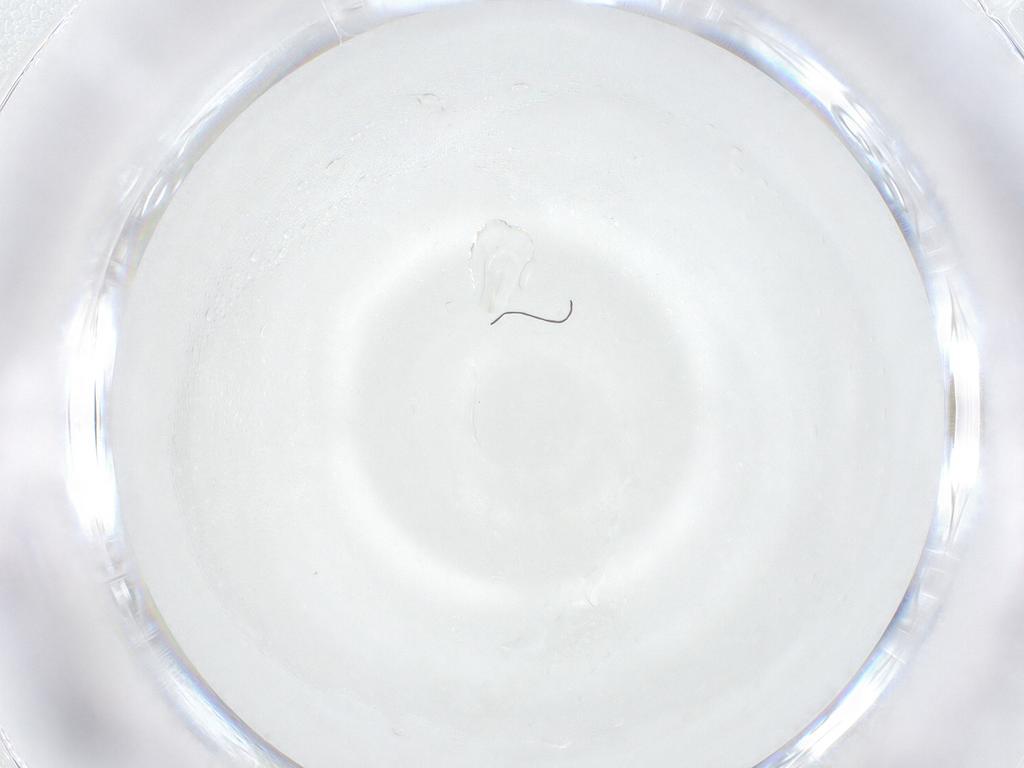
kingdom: Animalia
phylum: Arthropoda
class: Insecta
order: Diptera
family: Sarcophagidae
